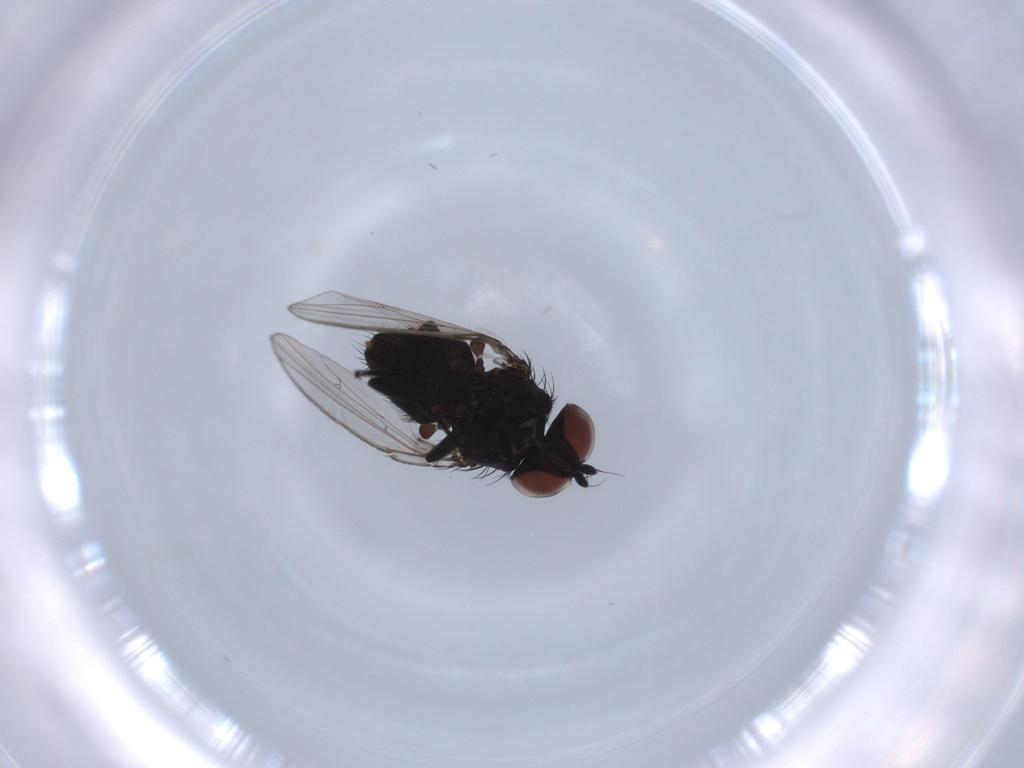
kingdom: Animalia
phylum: Arthropoda
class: Insecta
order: Diptera
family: Milichiidae
